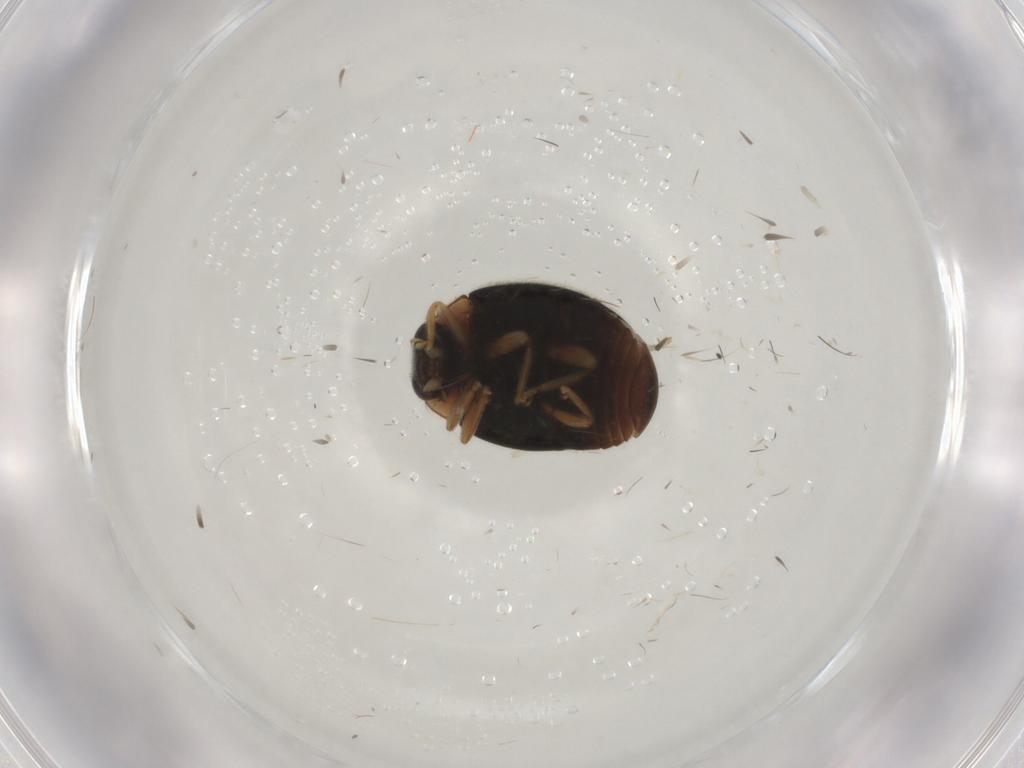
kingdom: Animalia
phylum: Arthropoda
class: Insecta
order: Coleoptera
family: Coccinellidae
